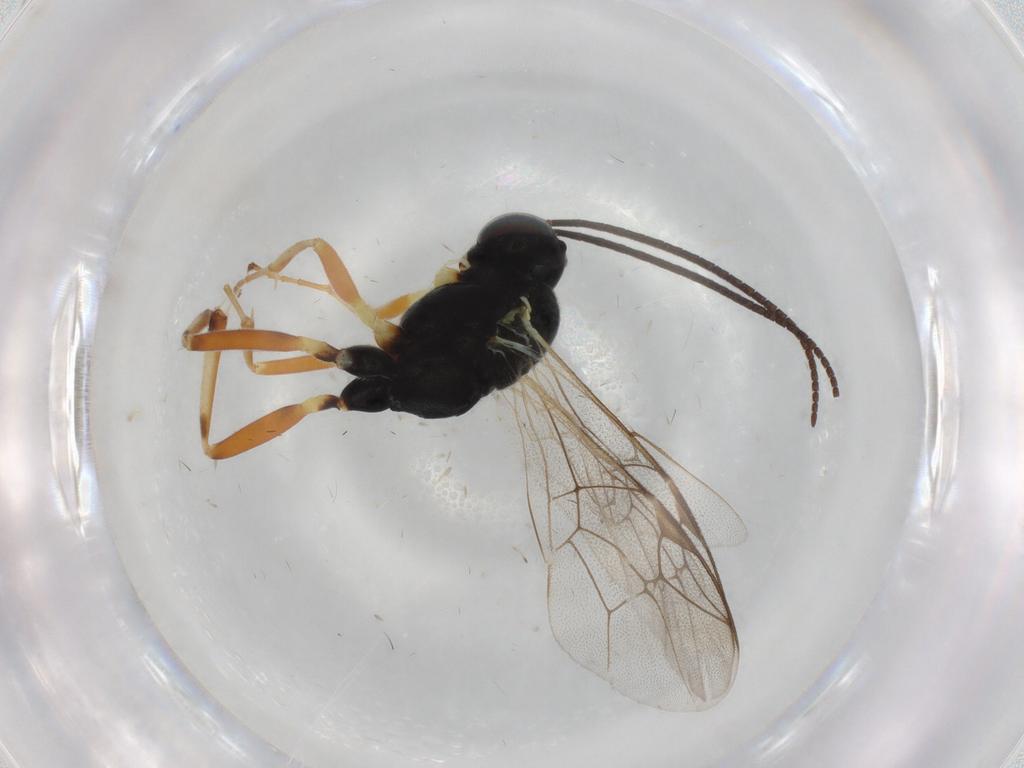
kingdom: Animalia
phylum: Arthropoda
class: Insecta
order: Hymenoptera
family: Ichneumonidae
